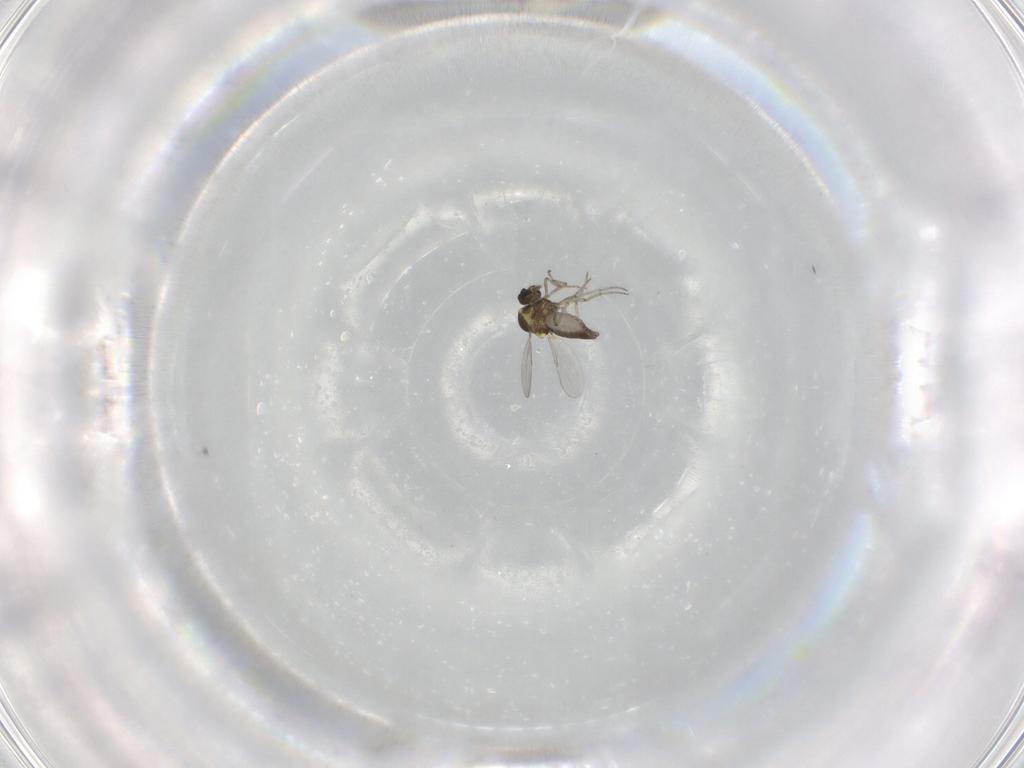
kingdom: Animalia
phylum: Arthropoda
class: Insecta
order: Diptera
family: Ceratopogonidae
